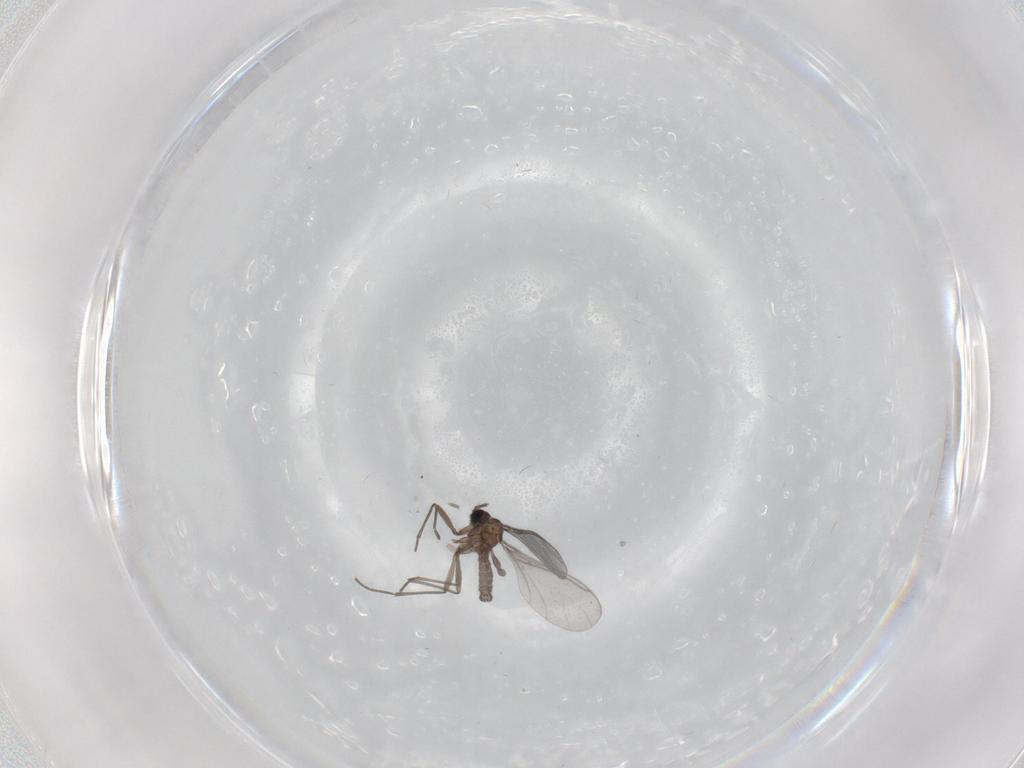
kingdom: Animalia
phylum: Arthropoda
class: Insecta
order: Diptera
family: Sciaridae
